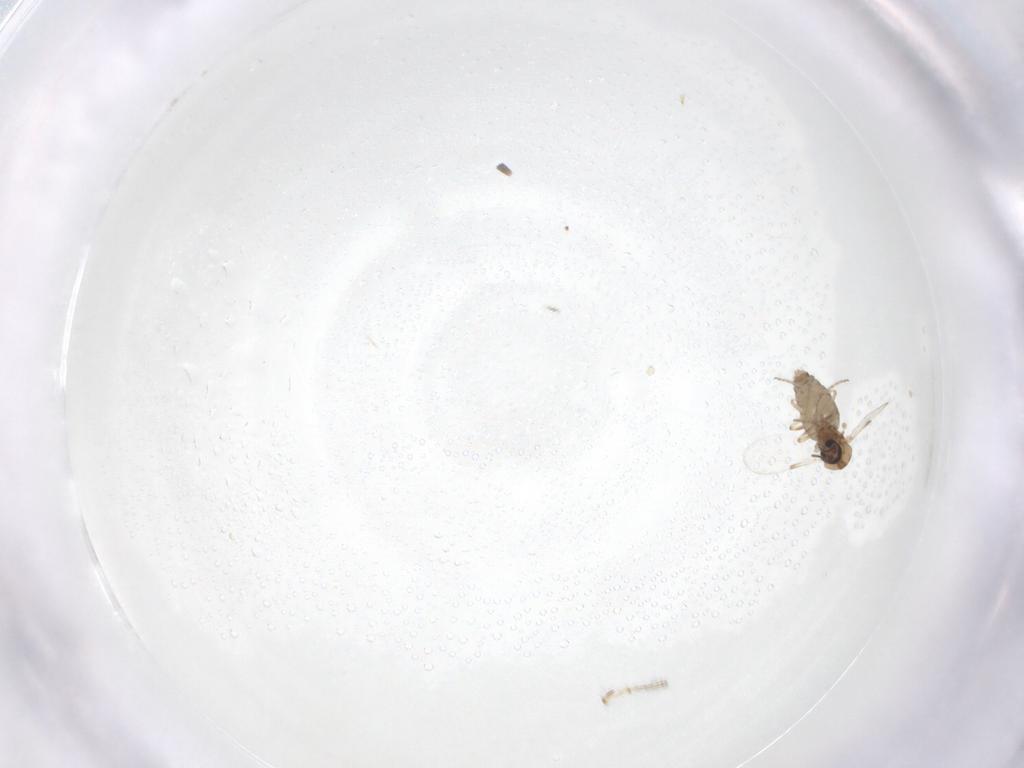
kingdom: Animalia
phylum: Arthropoda
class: Insecta
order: Diptera
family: Ceratopogonidae
